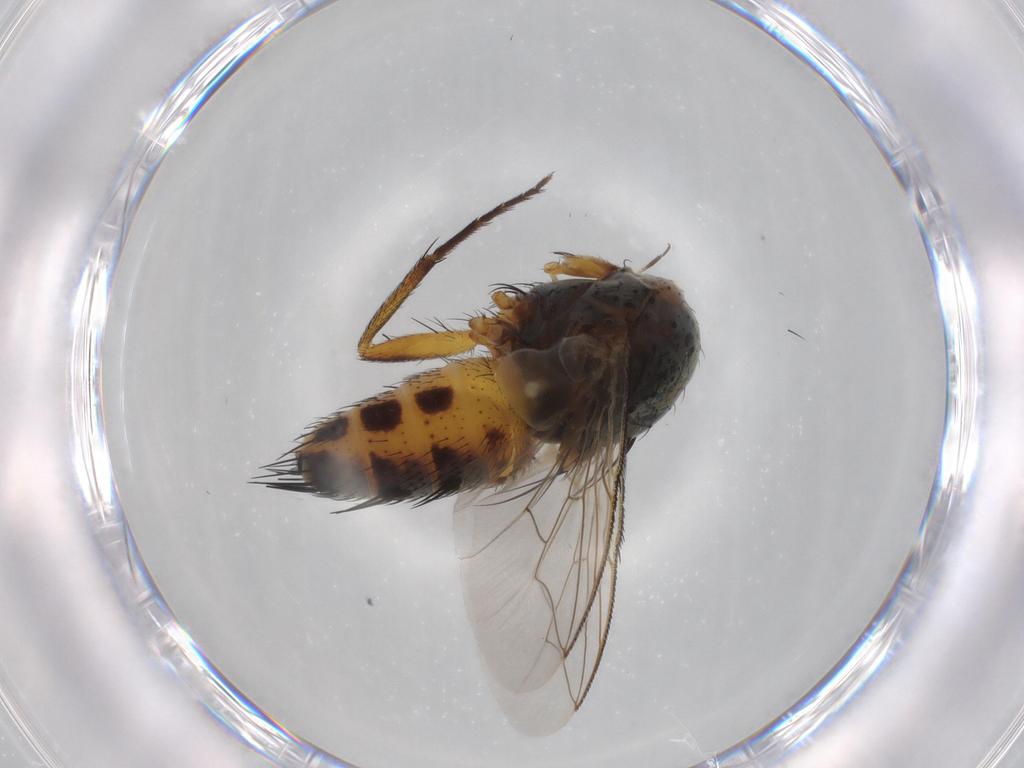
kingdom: Animalia
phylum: Arthropoda
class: Insecta
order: Diptera
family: Sarcophagidae
